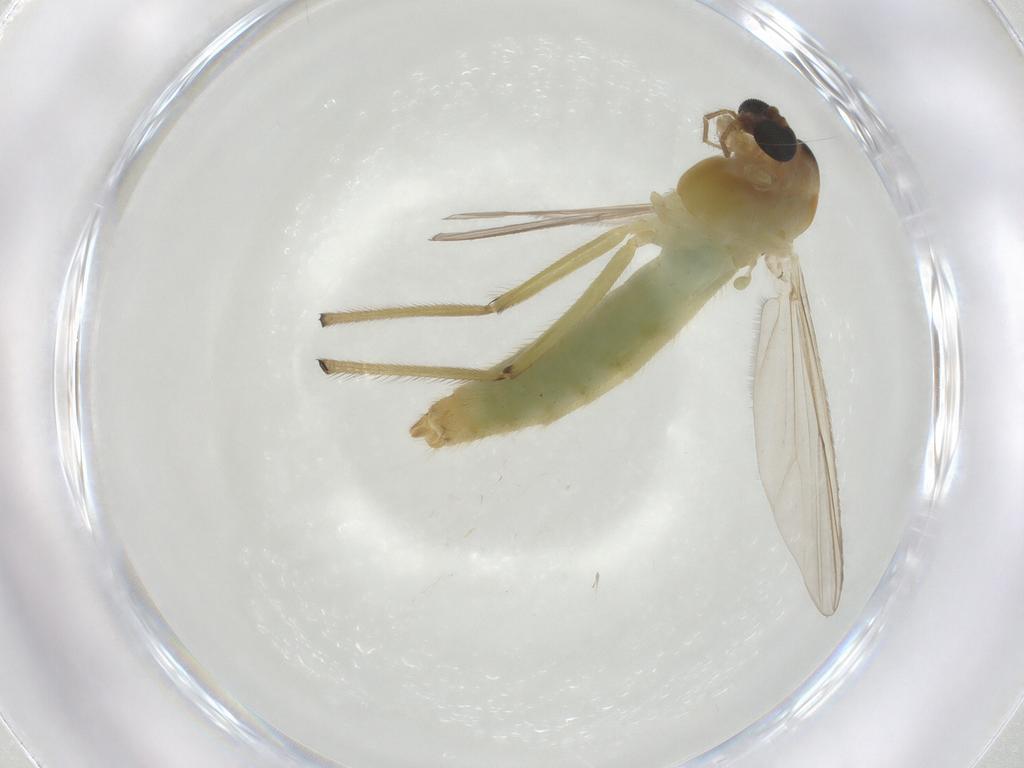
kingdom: Animalia
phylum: Arthropoda
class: Insecta
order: Diptera
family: Chironomidae
